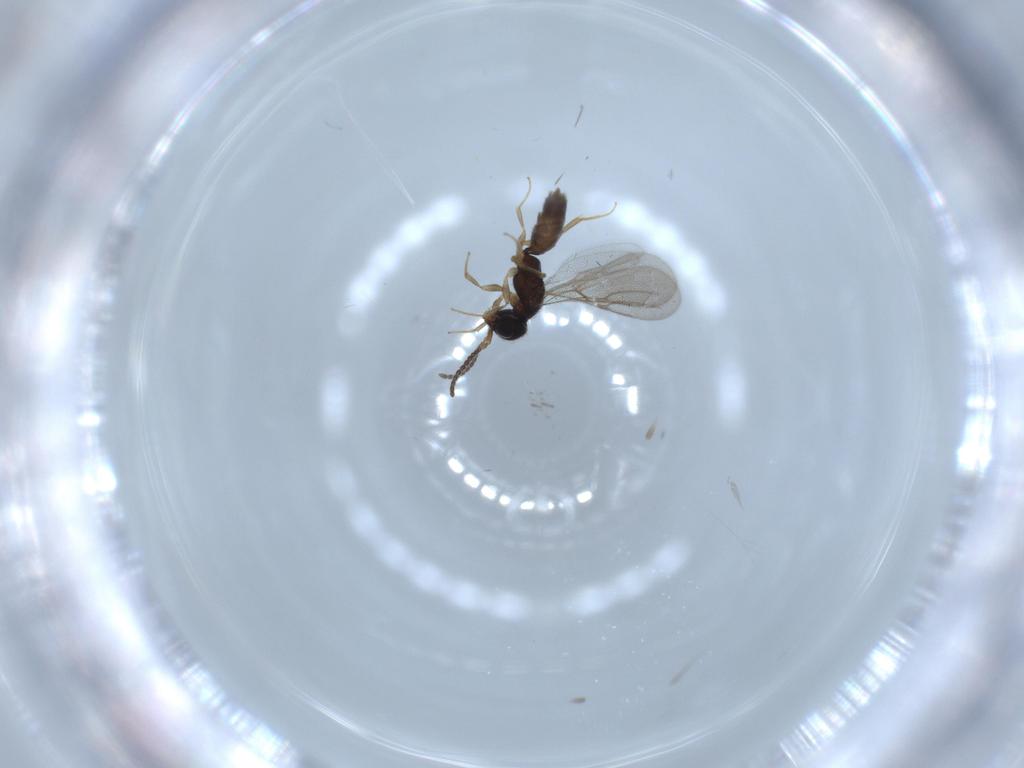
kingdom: Animalia
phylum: Arthropoda
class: Insecta
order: Hymenoptera
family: Bethylidae
